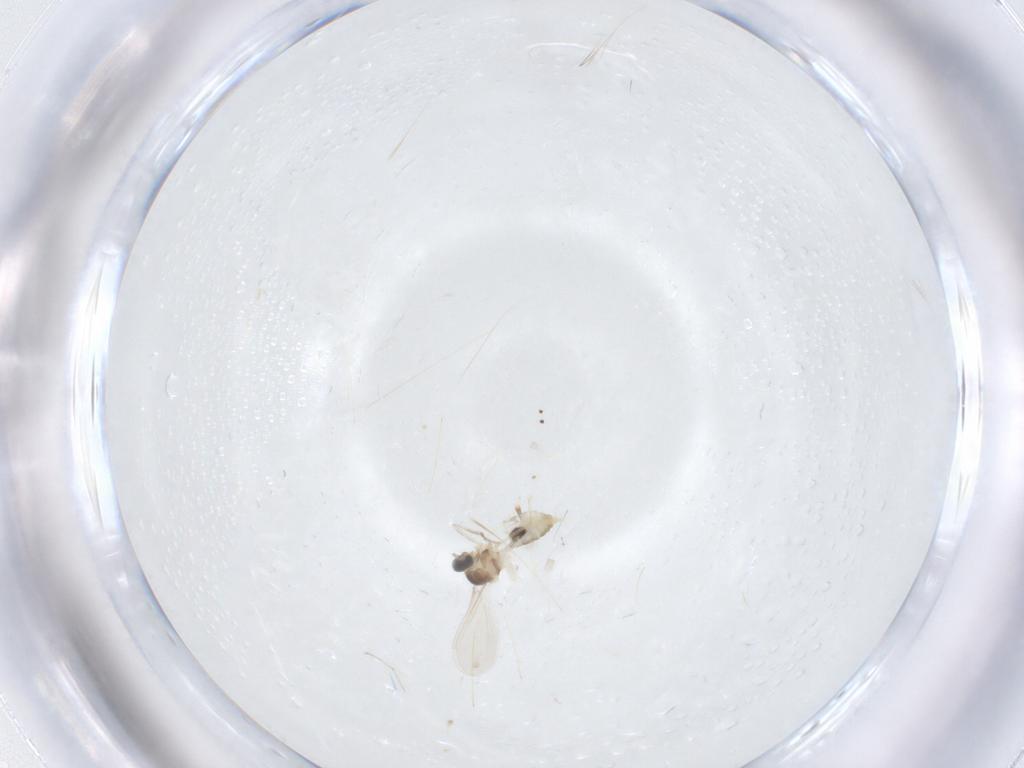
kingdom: Animalia
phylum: Arthropoda
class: Insecta
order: Diptera
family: Cecidomyiidae
